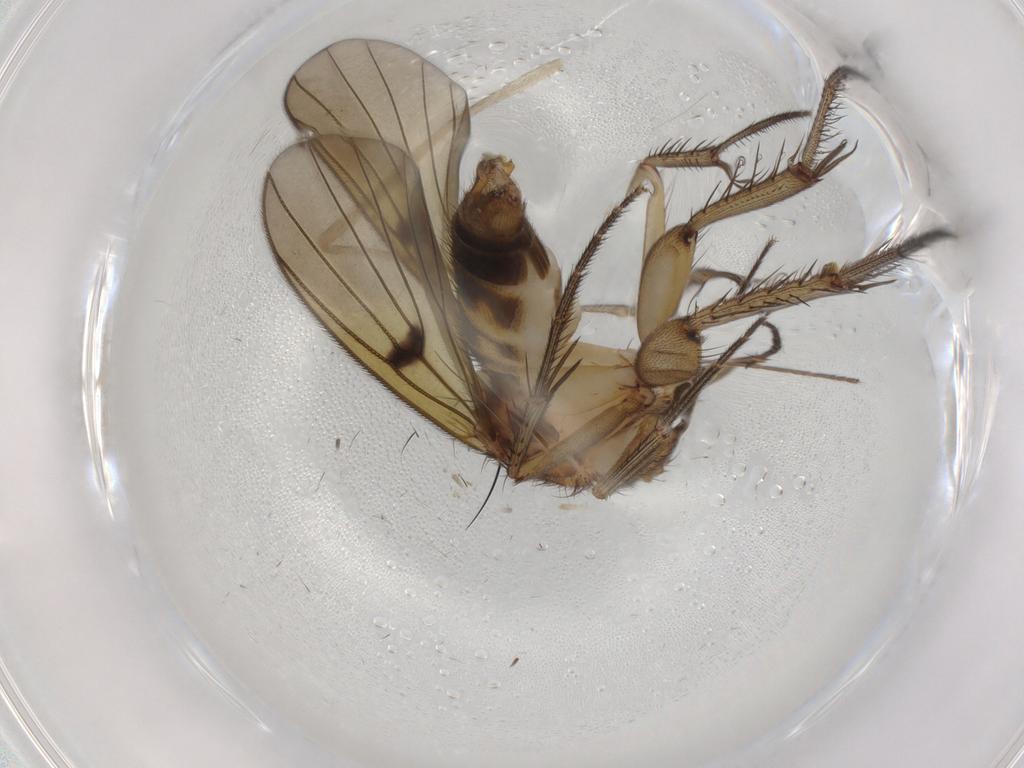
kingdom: Animalia
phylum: Arthropoda
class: Insecta
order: Diptera
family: Mycetophilidae
